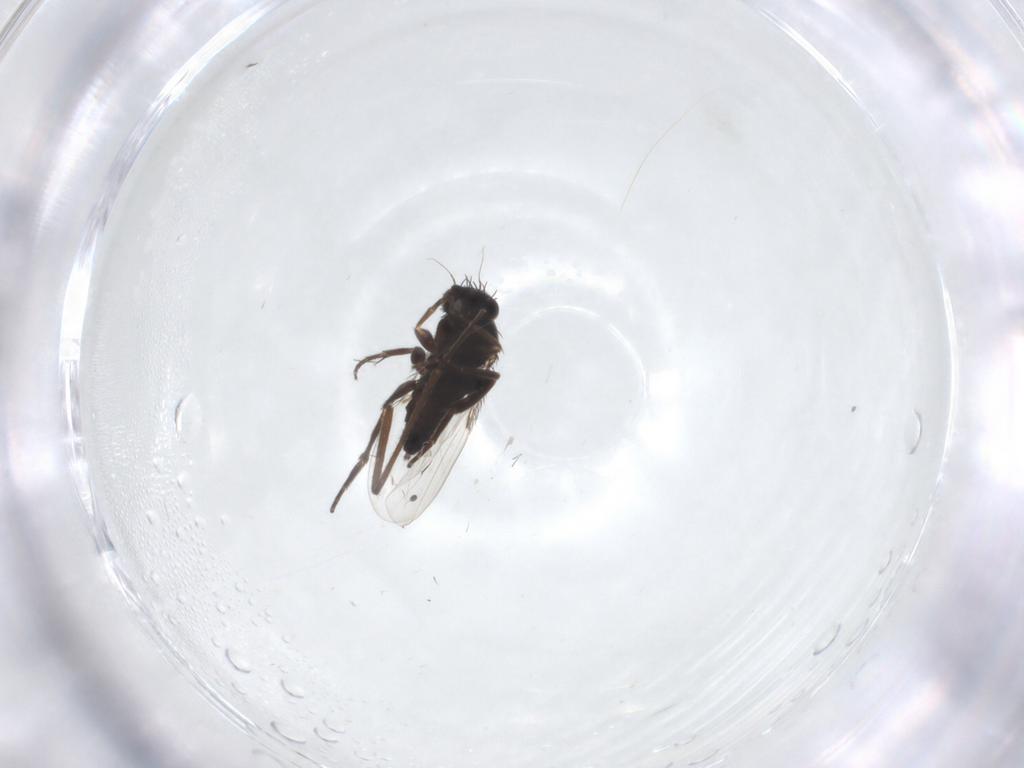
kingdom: Animalia
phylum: Arthropoda
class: Insecta
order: Diptera
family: Ceratopogonidae
